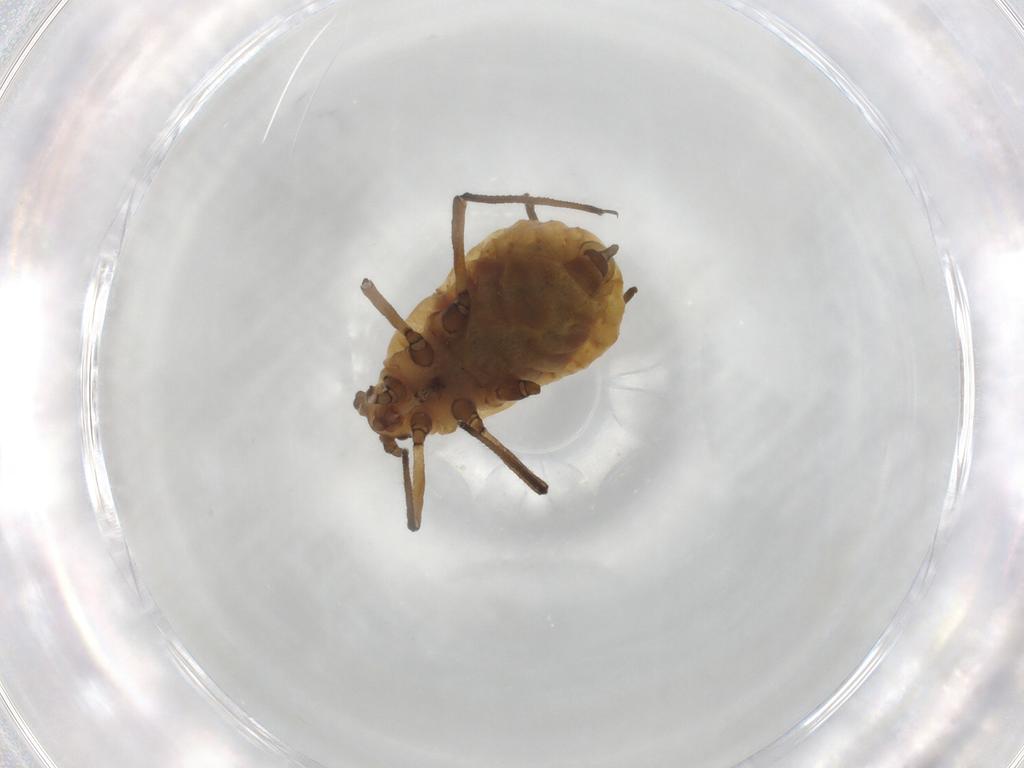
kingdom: Animalia
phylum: Arthropoda
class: Insecta
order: Hemiptera
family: Aphididae
